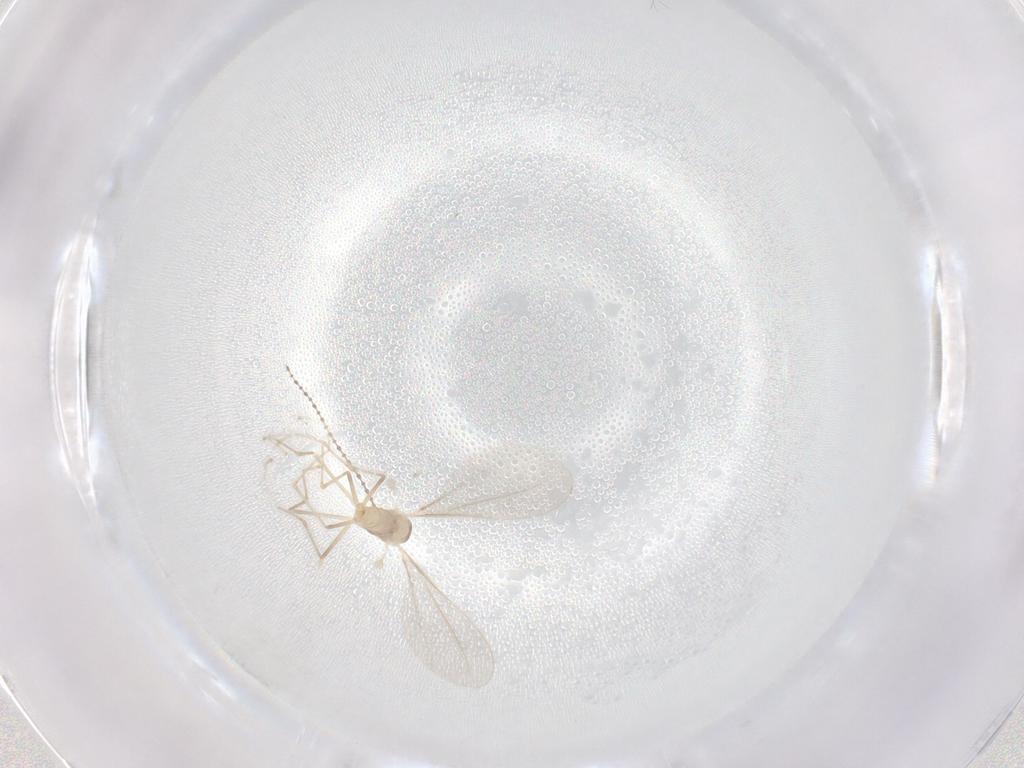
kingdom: Animalia
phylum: Arthropoda
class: Insecta
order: Diptera
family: Cecidomyiidae
